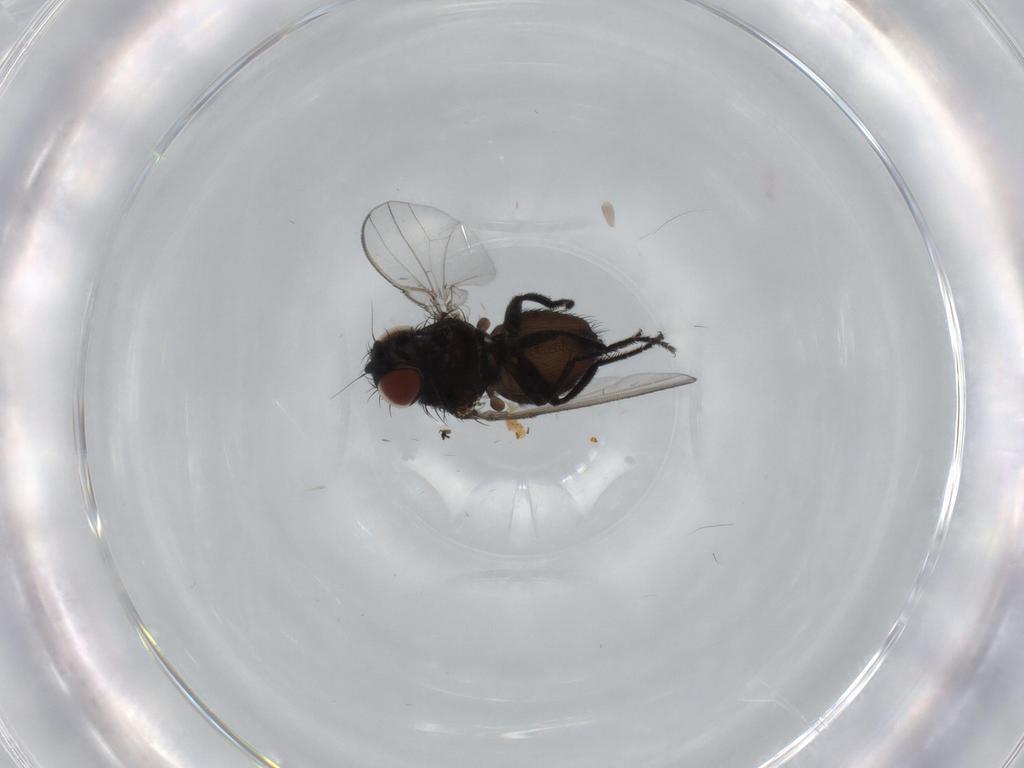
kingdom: Animalia
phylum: Arthropoda
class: Insecta
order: Diptera
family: Milichiidae
